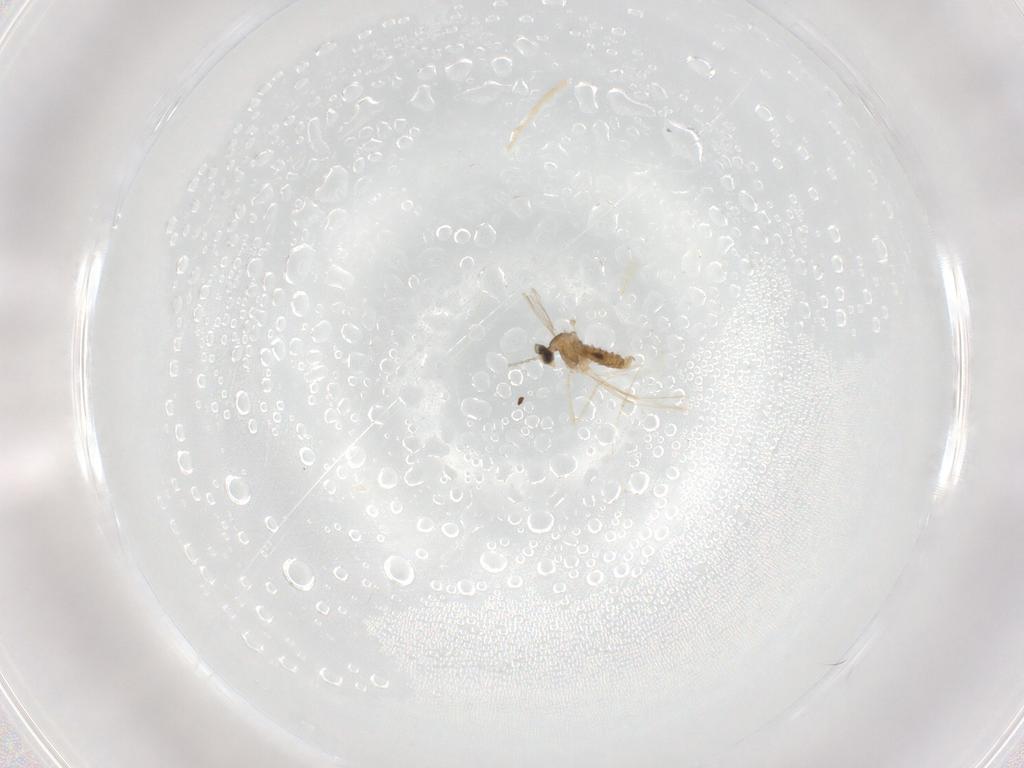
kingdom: Animalia
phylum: Arthropoda
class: Insecta
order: Diptera
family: Cecidomyiidae
